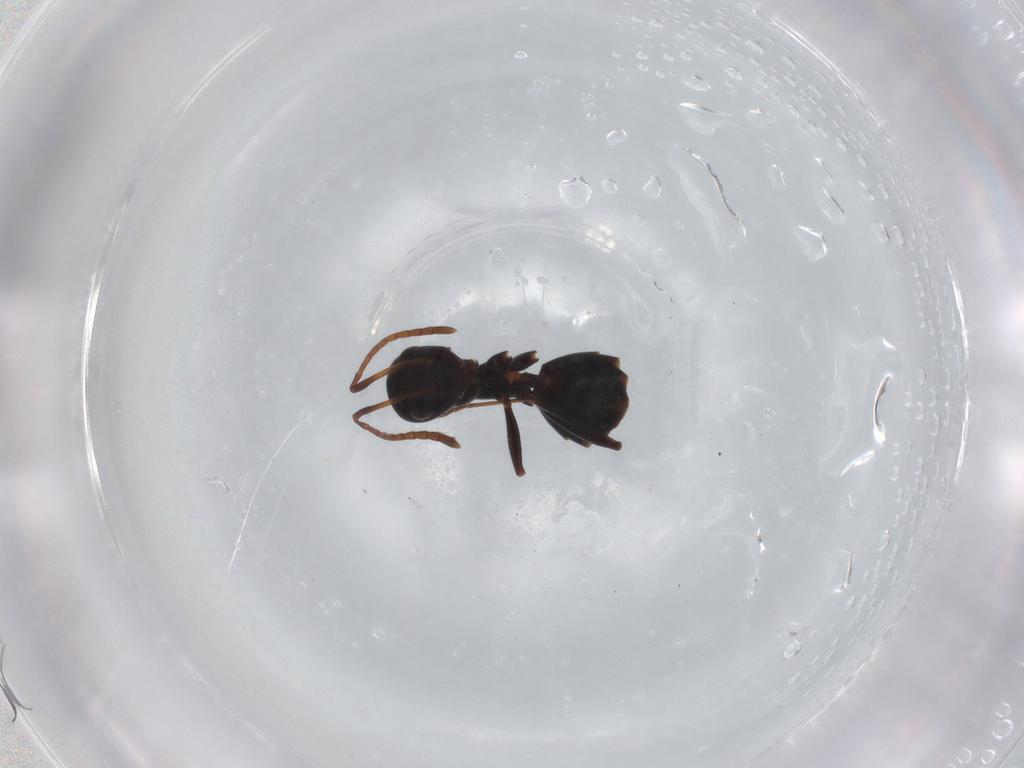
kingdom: Animalia
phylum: Arthropoda
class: Insecta
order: Hymenoptera
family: Formicidae
